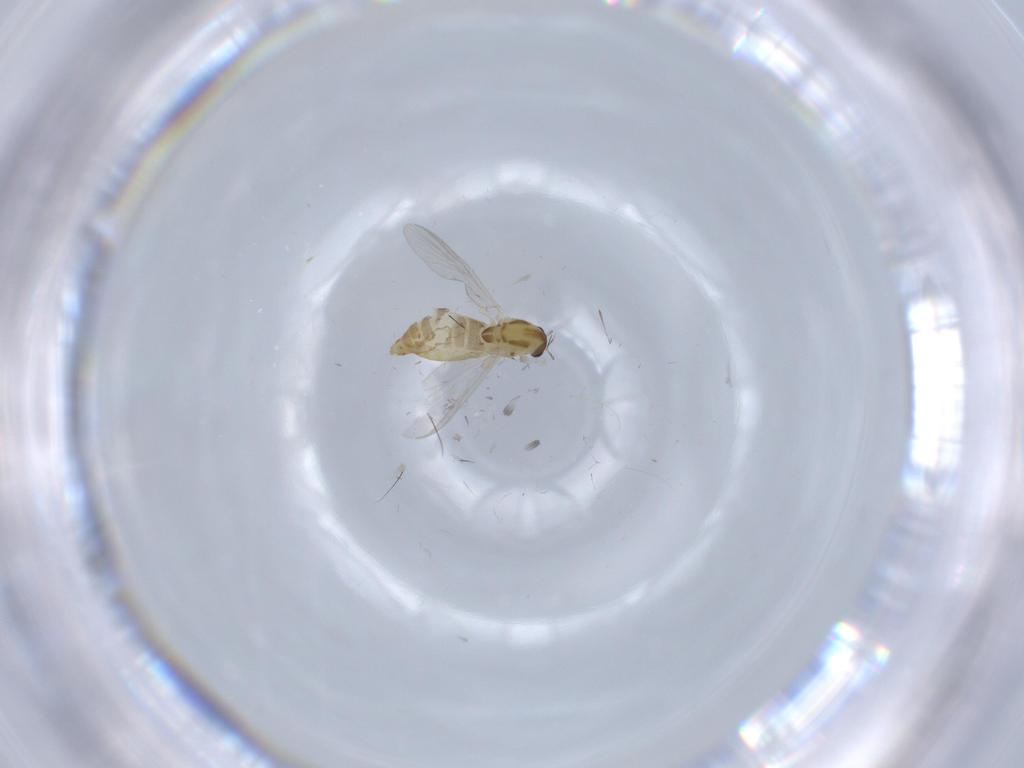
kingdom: Animalia
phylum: Arthropoda
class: Insecta
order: Diptera
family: Chironomidae
